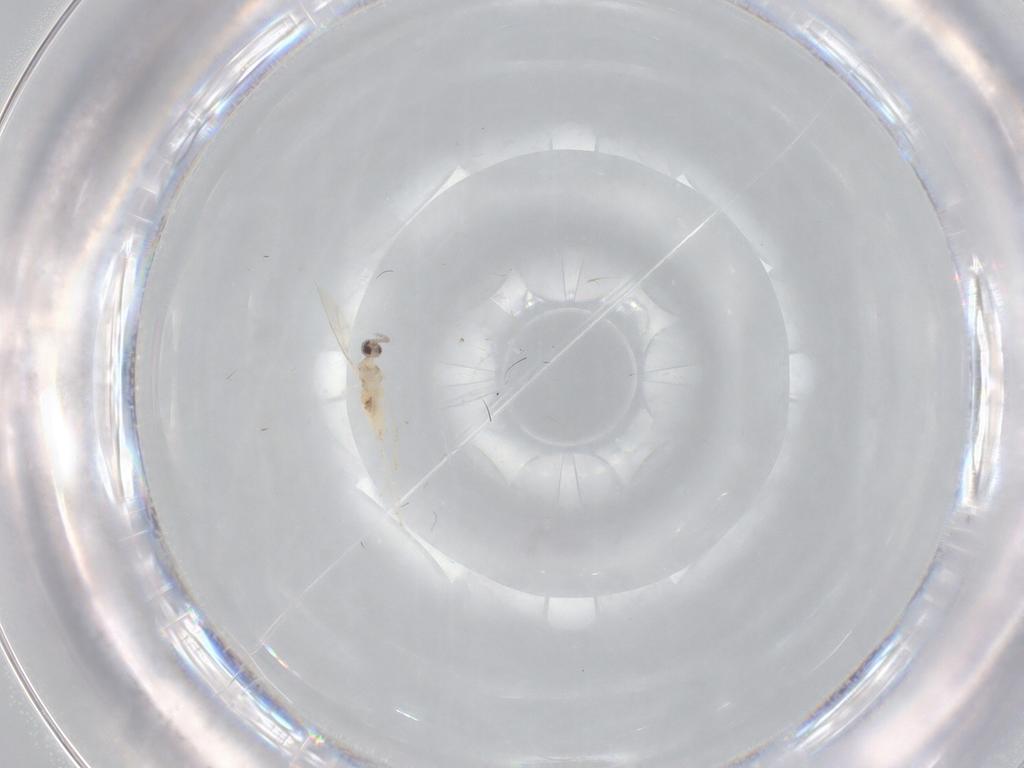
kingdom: Animalia
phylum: Arthropoda
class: Insecta
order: Diptera
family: Sciaridae
